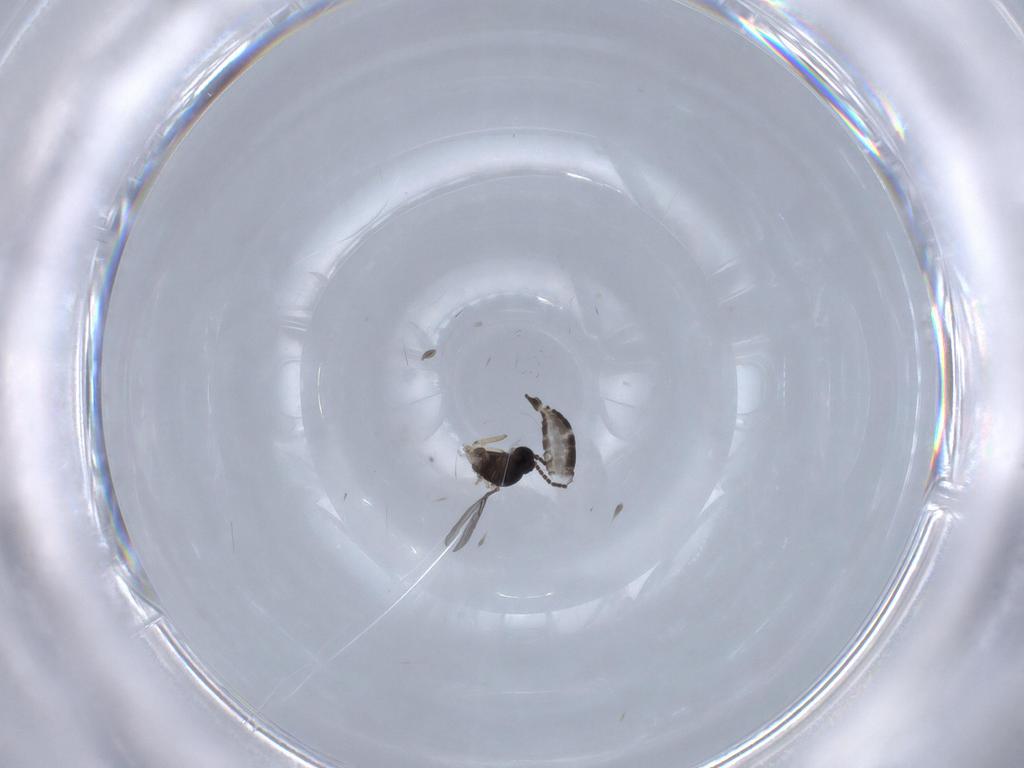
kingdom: Animalia
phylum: Arthropoda
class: Insecta
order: Diptera
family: Sciaridae
